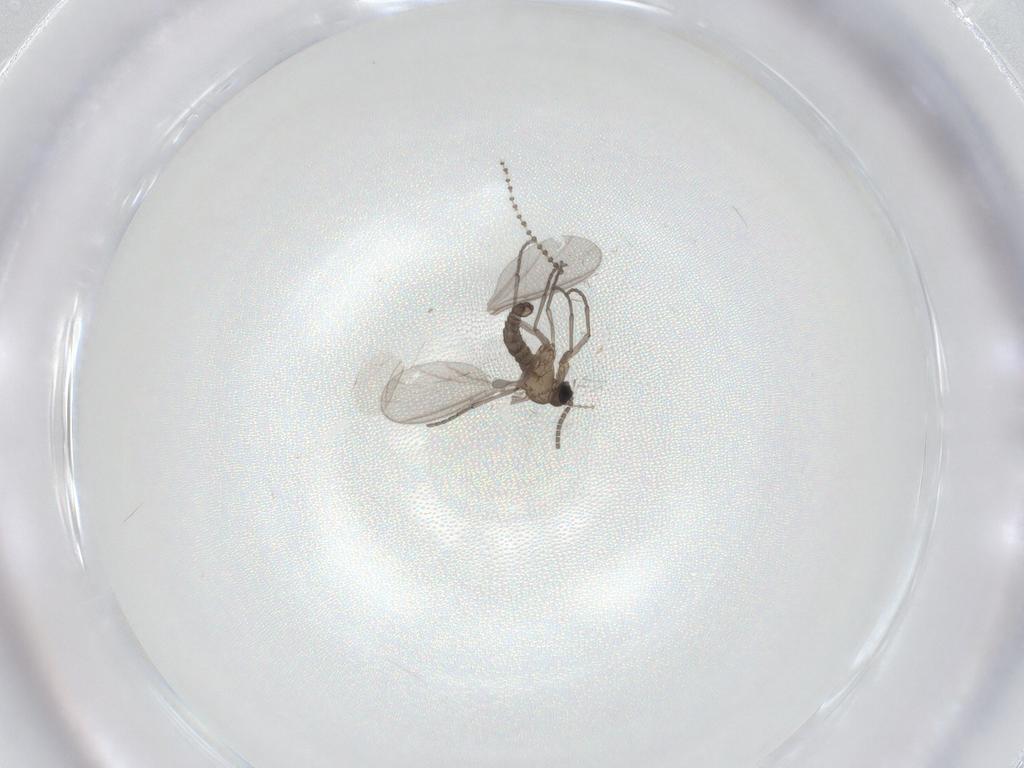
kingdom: Animalia
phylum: Arthropoda
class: Insecta
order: Diptera
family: Sciaridae
